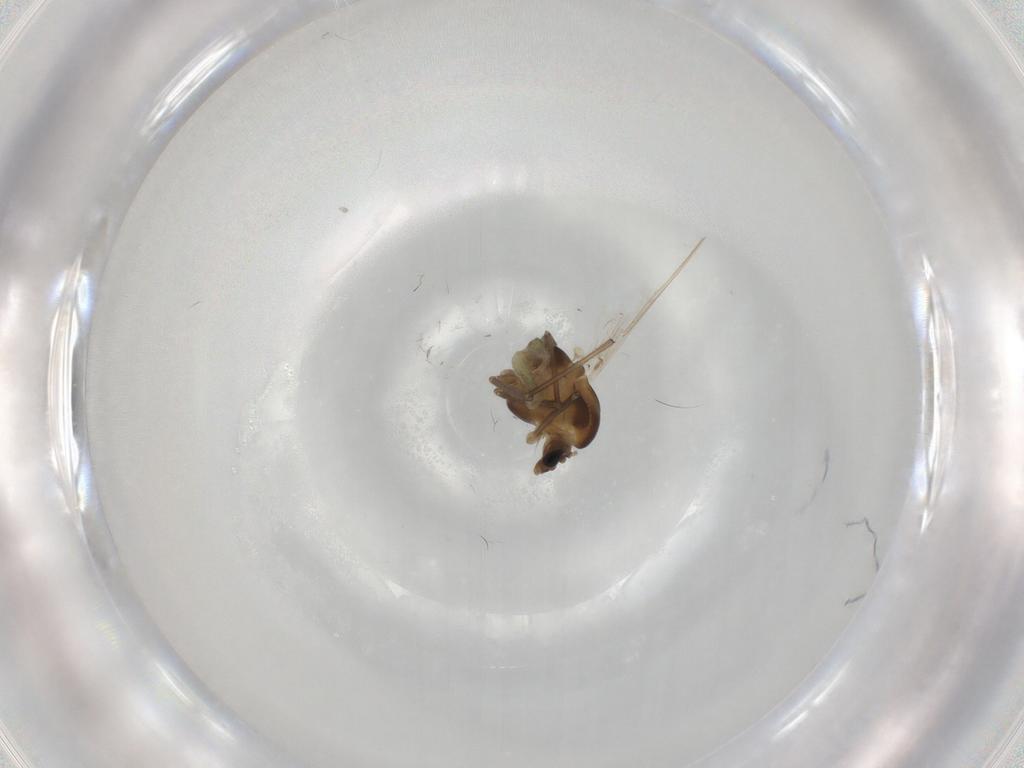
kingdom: Animalia
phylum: Arthropoda
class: Insecta
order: Diptera
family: Chironomidae
